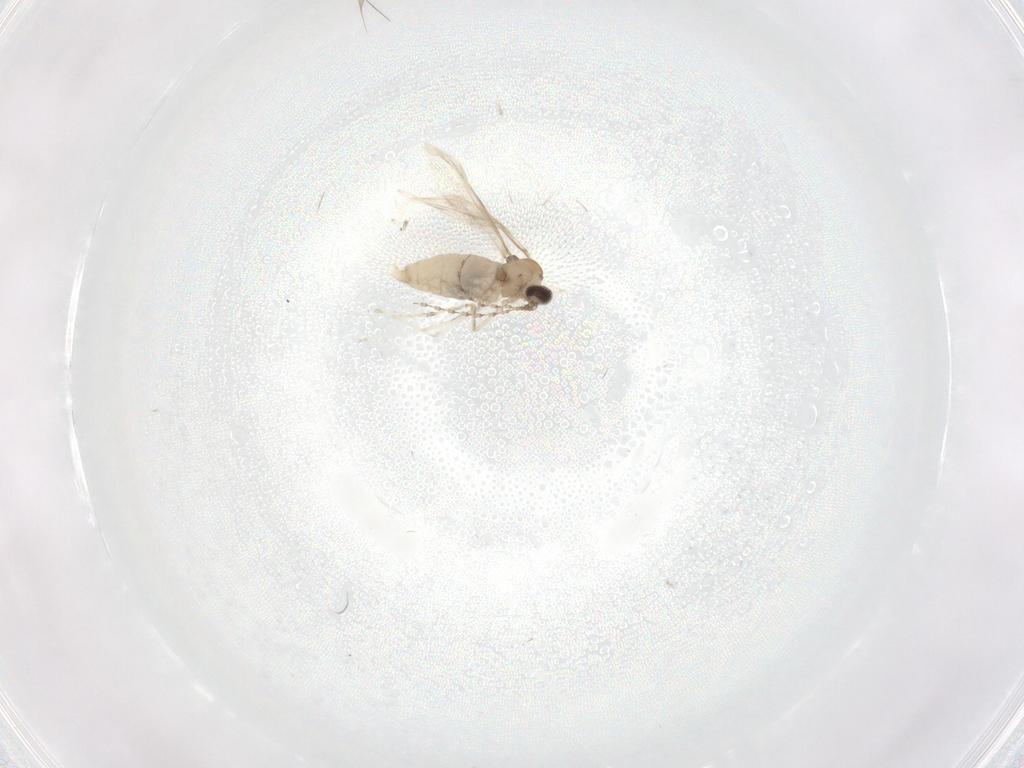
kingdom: Animalia
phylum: Arthropoda
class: Insecta
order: Diptera
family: Cecidomyiidae
